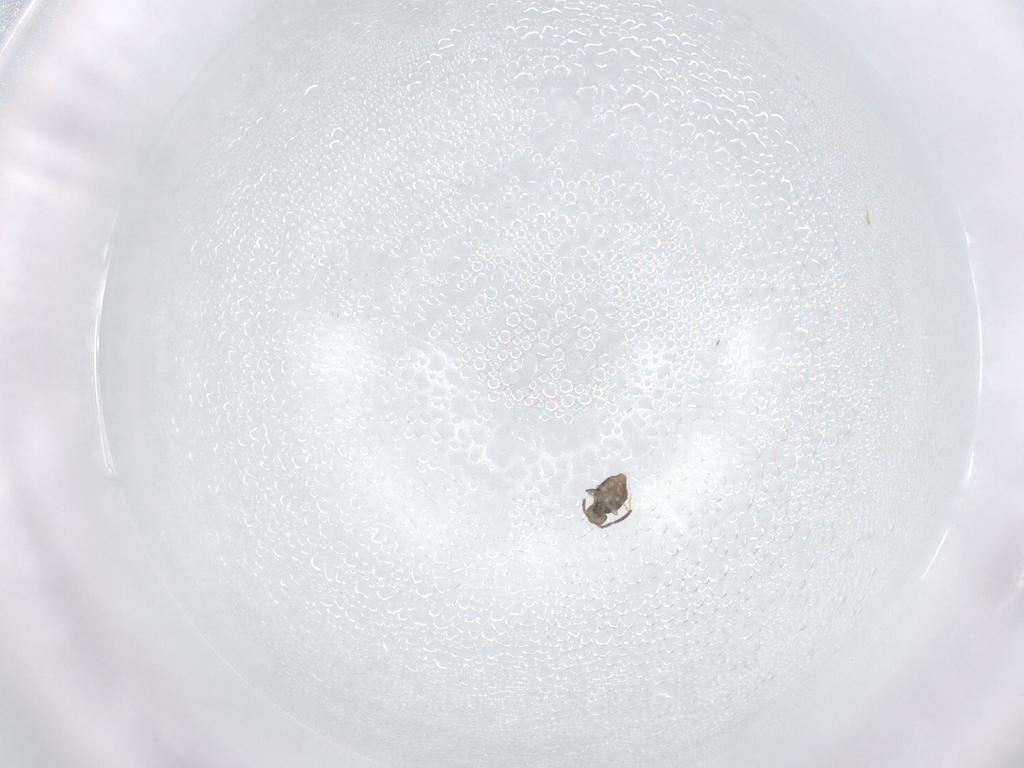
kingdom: Animalia
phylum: Arthropoda
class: Collembola
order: Symphypleona
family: Katiannidae
